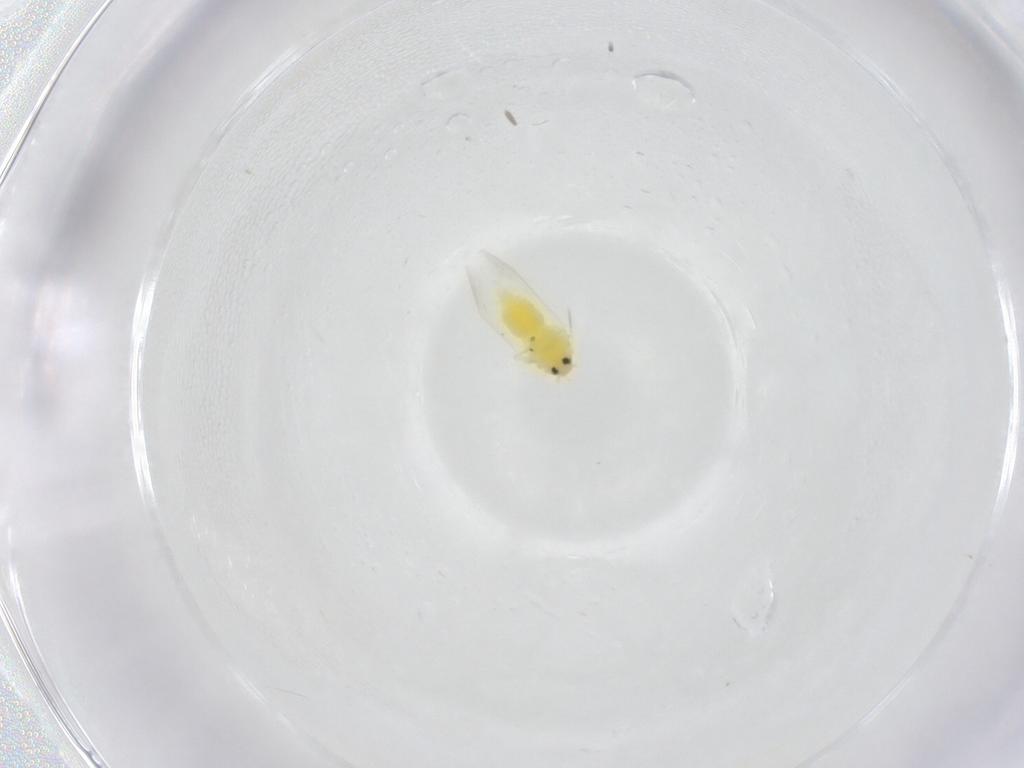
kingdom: Animalia
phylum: Arthropoda
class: Insecta
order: Hemiptera
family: Aleyrodidae
